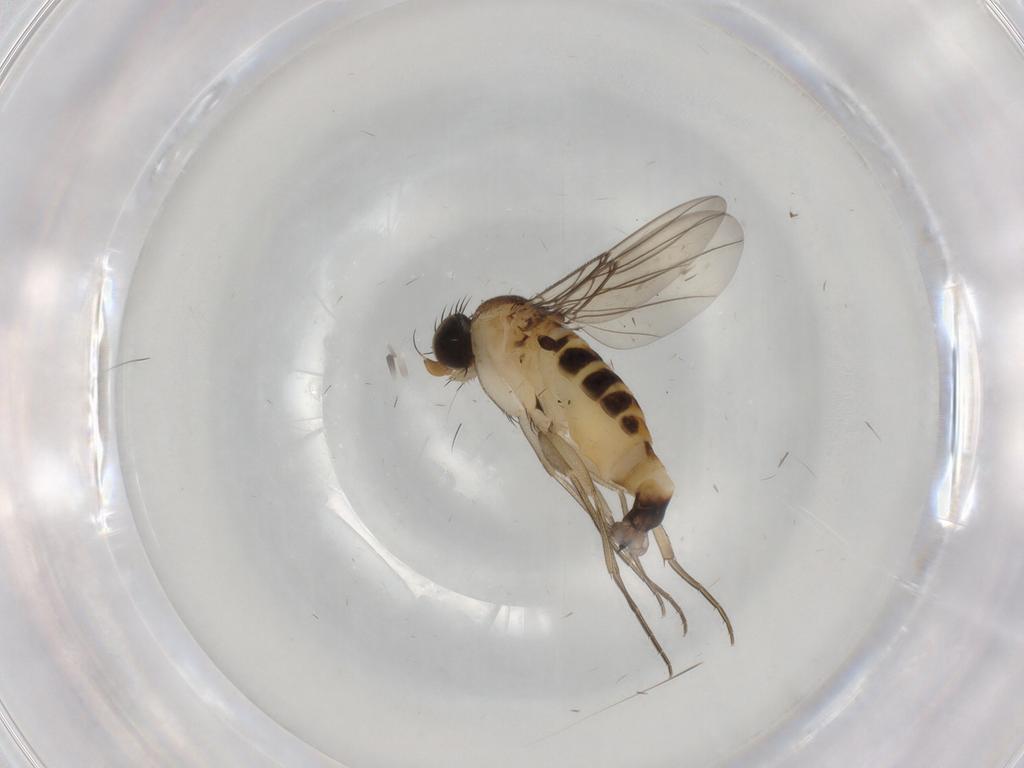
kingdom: Animalia
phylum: Arthropoda
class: Insecta
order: Diptera
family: Phoridae
